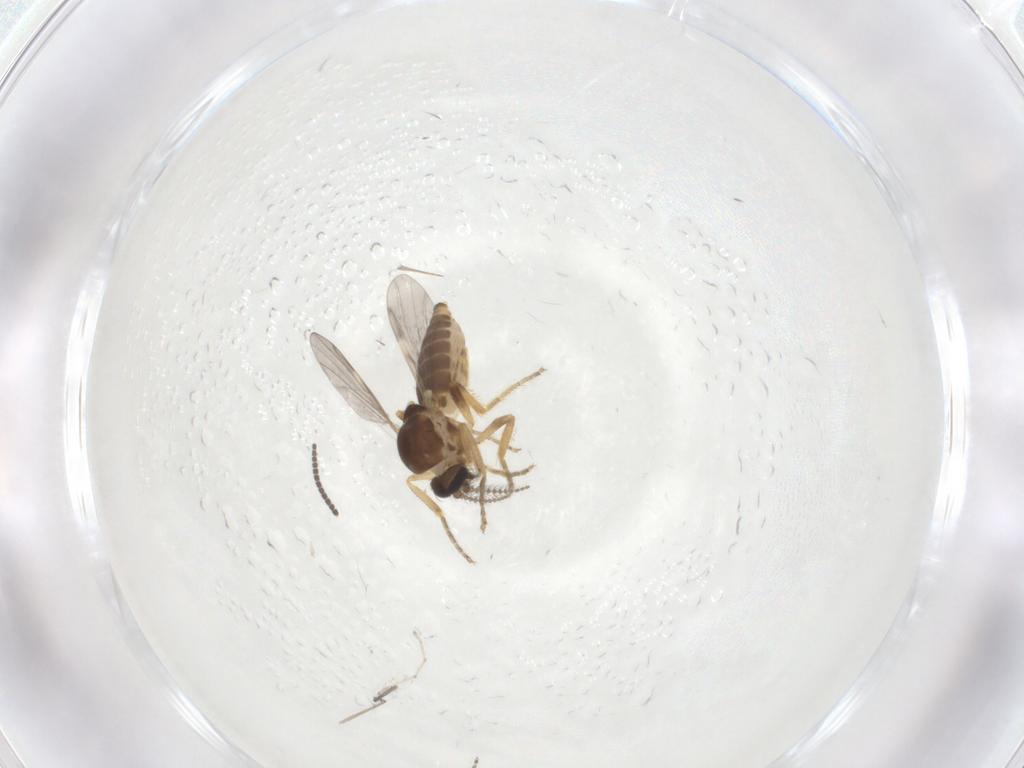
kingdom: Animalia
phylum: Arthropoda
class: Insecta
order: Diptera
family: Ceratopogonidae
